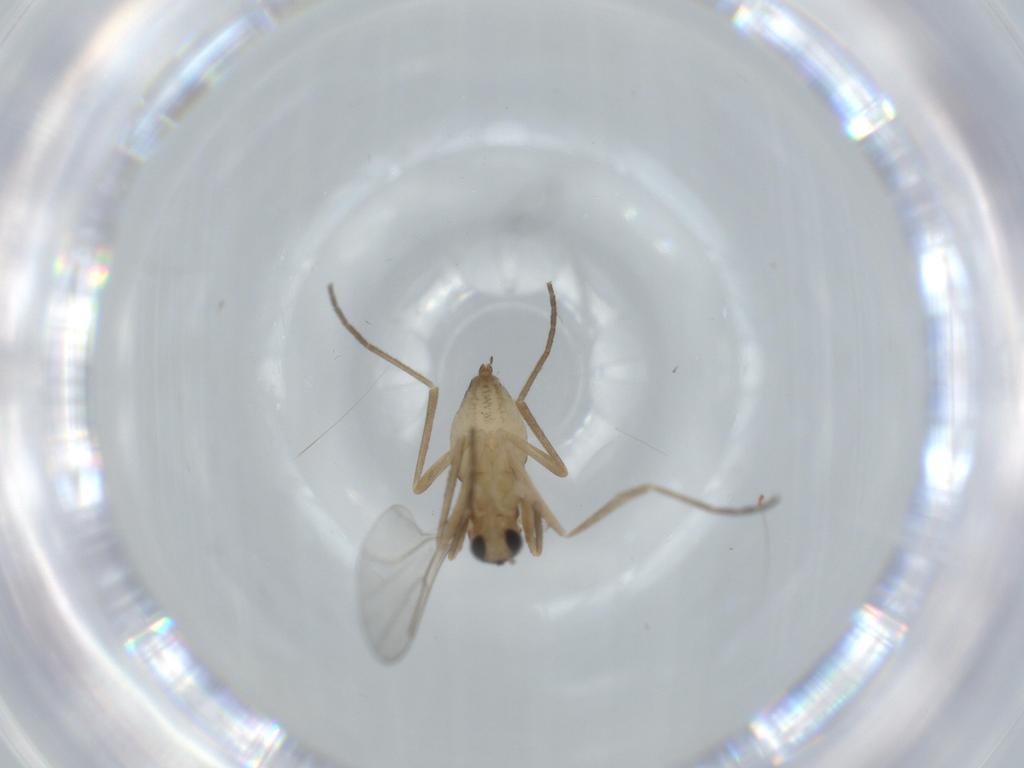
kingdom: Animalia
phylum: Arthropoda
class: Insecta
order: Diptera
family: Cecidomyiidae
